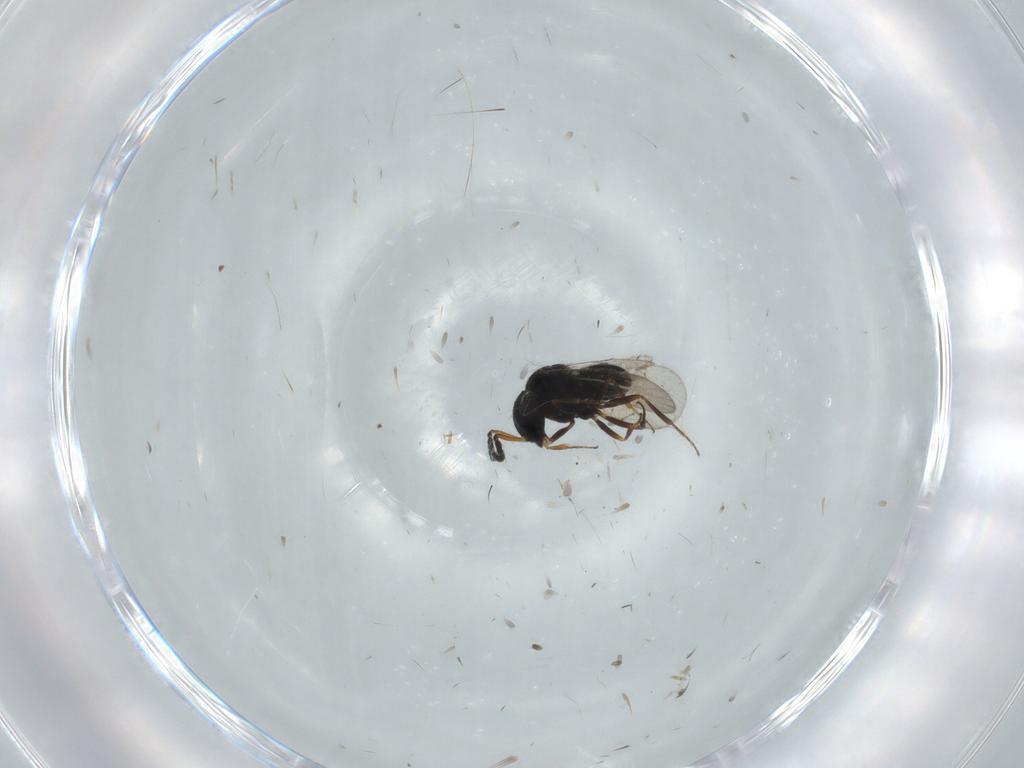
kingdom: Animalia
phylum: Arthropoda
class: Insecta
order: Hymenoptera
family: Scelionidae
